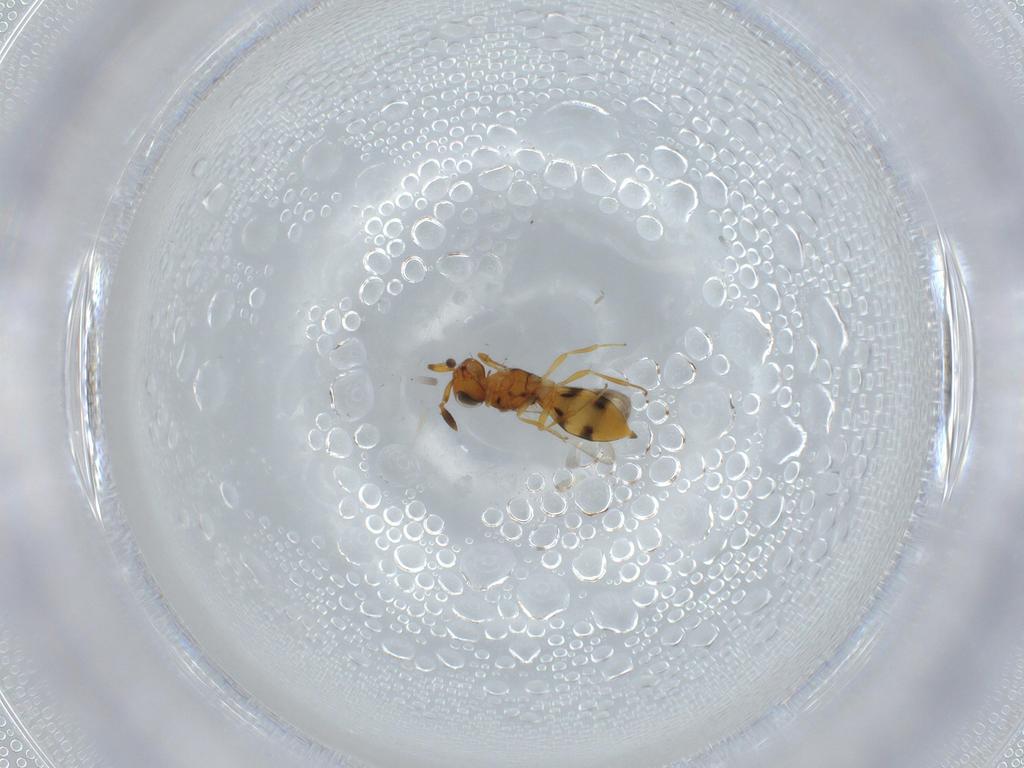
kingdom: Animalia
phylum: Arthropoda
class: Insecta
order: Hymenoptera
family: Scelionidae
